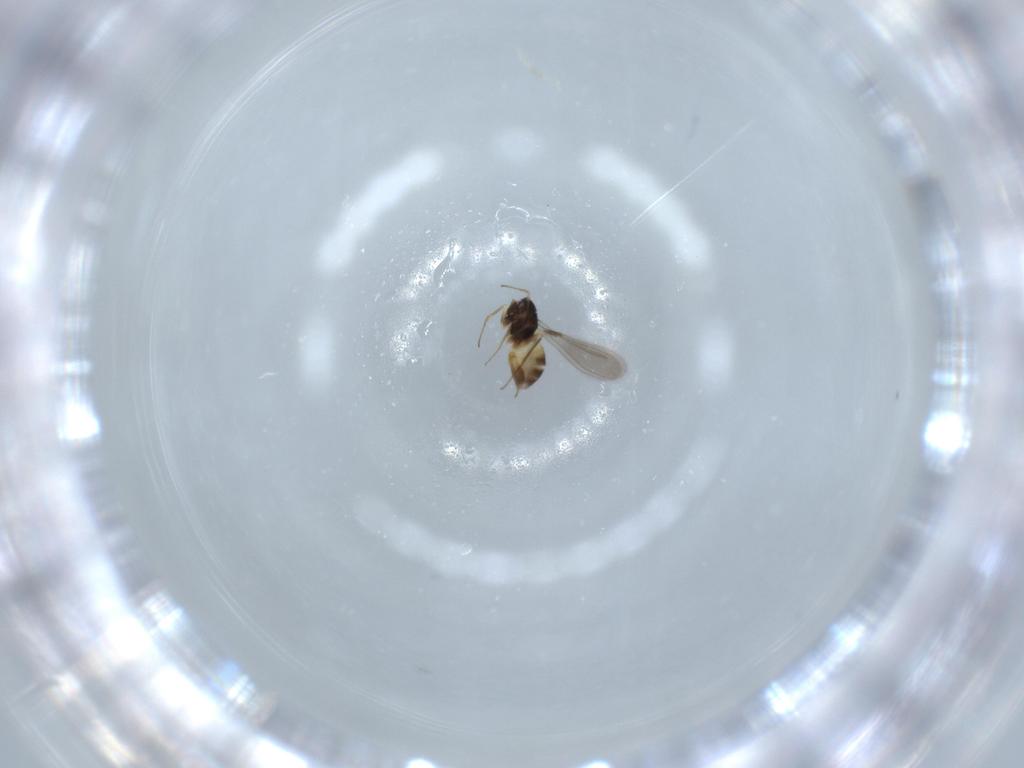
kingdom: Animalia
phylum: Arthropoda
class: Insecta
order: Hymenoptera
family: Mymaridae
